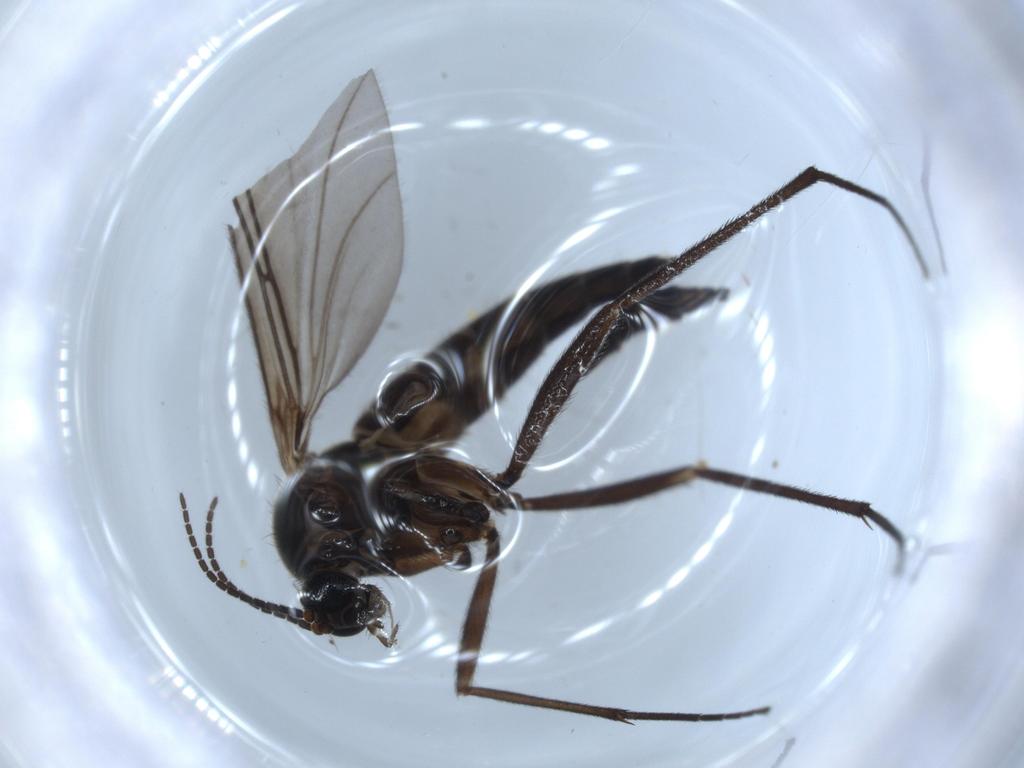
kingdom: Animalia
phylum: Arthropoda
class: Insecta
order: Diptera
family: Sciaridae
